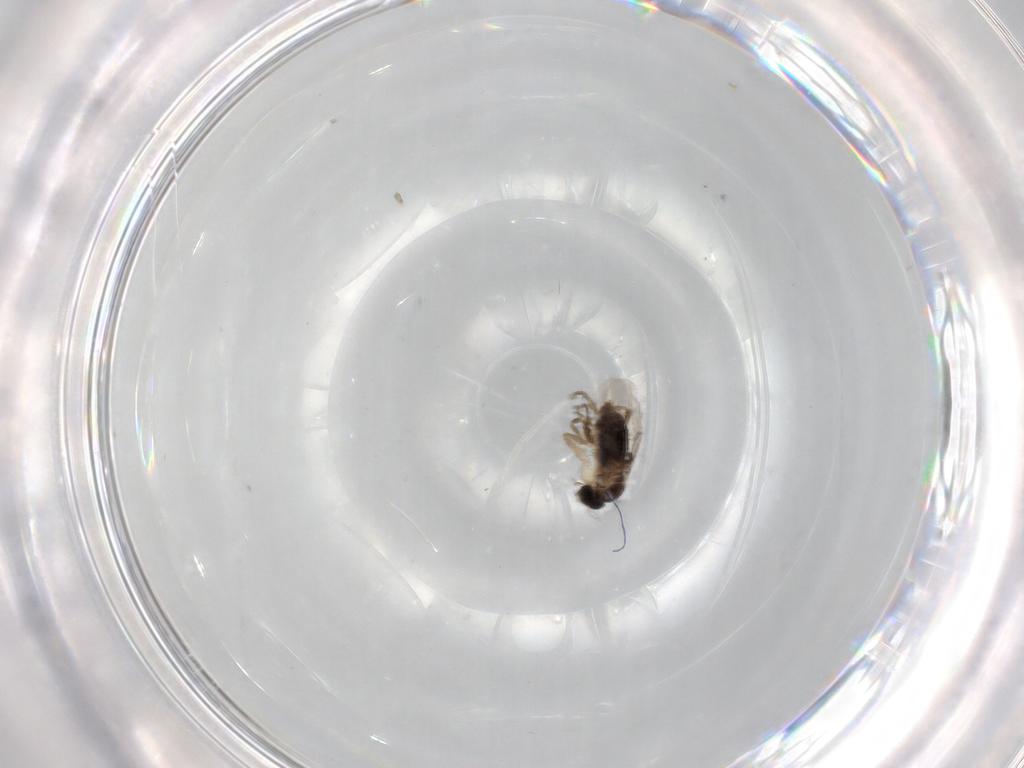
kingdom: Animalia
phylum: Arthropoda
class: Insecta
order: Diptera
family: Phoridae
